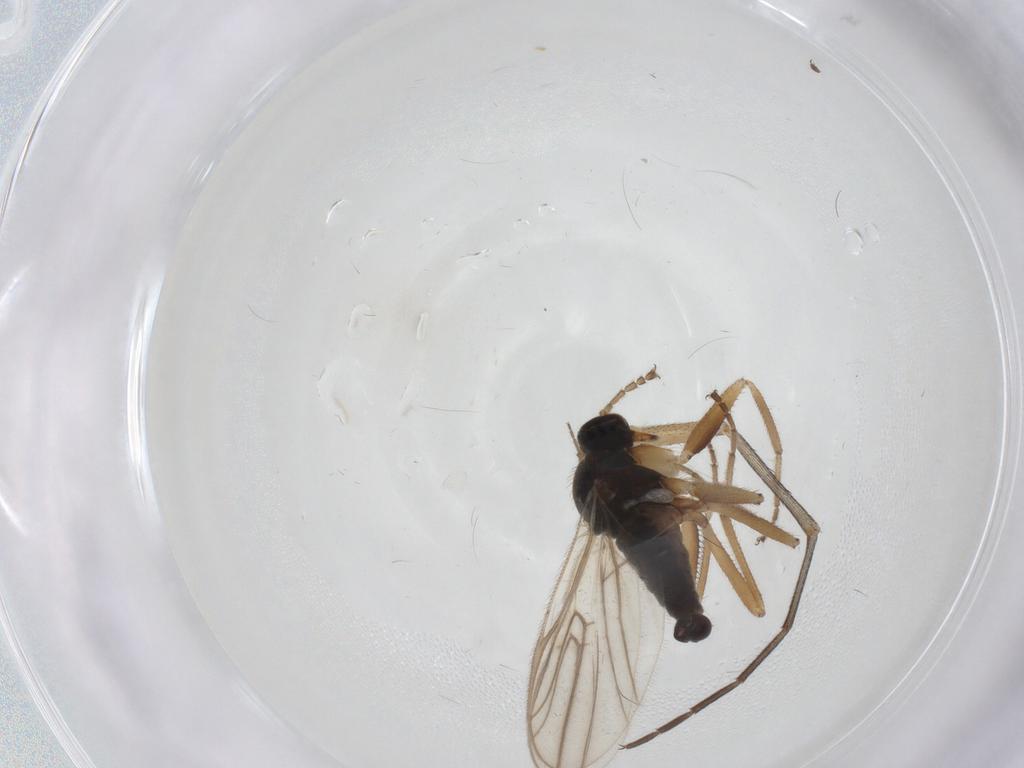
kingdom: Animalia
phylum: Arthropoda
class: Insecta
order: Diptera
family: Hybotidae
